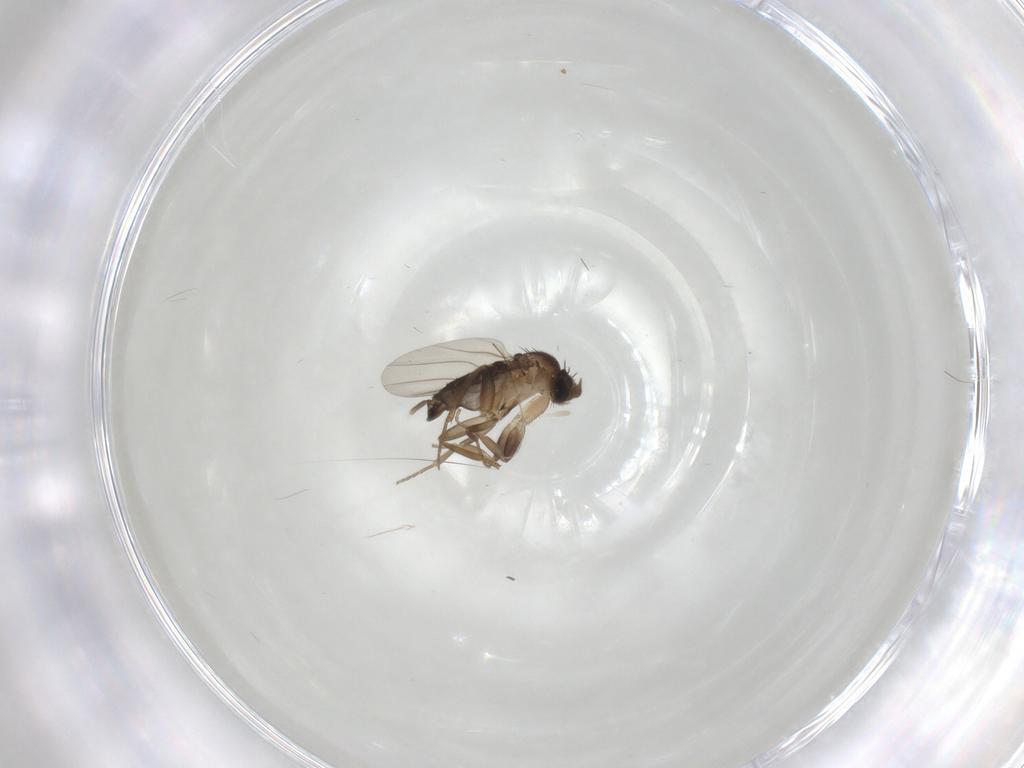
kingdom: Animalia
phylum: Arthropoda
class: Insecta
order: Diptera
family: Phoridae
